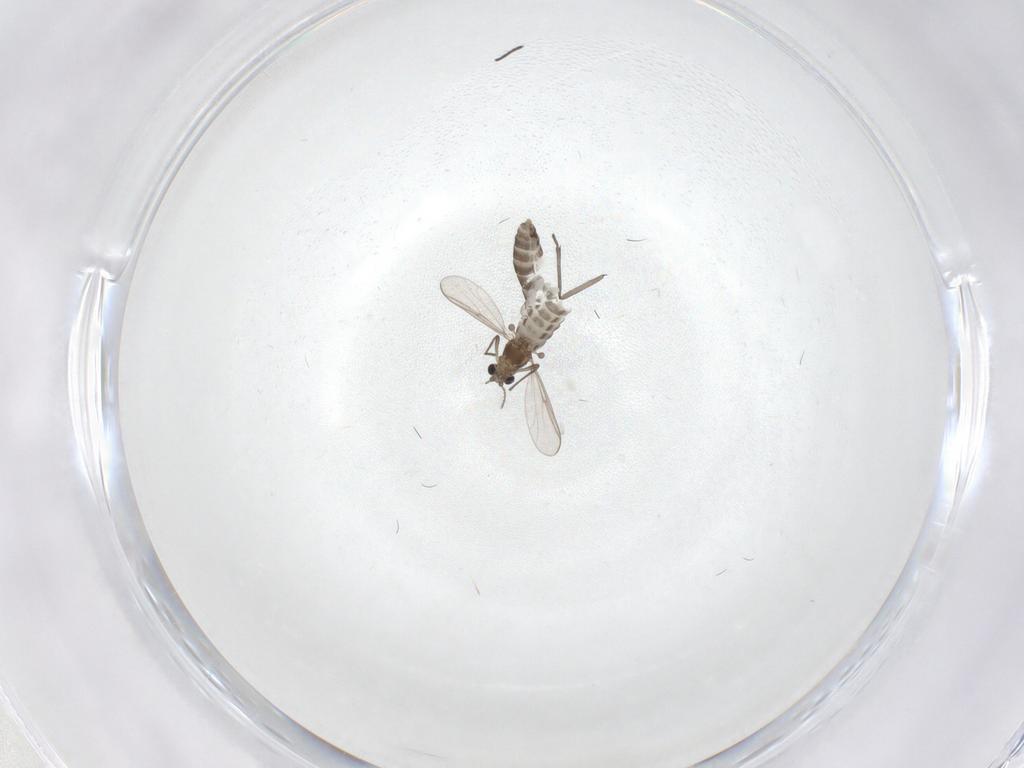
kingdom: Animalia
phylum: Arthropoda
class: Insecta
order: Diptera
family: Chironomidae
